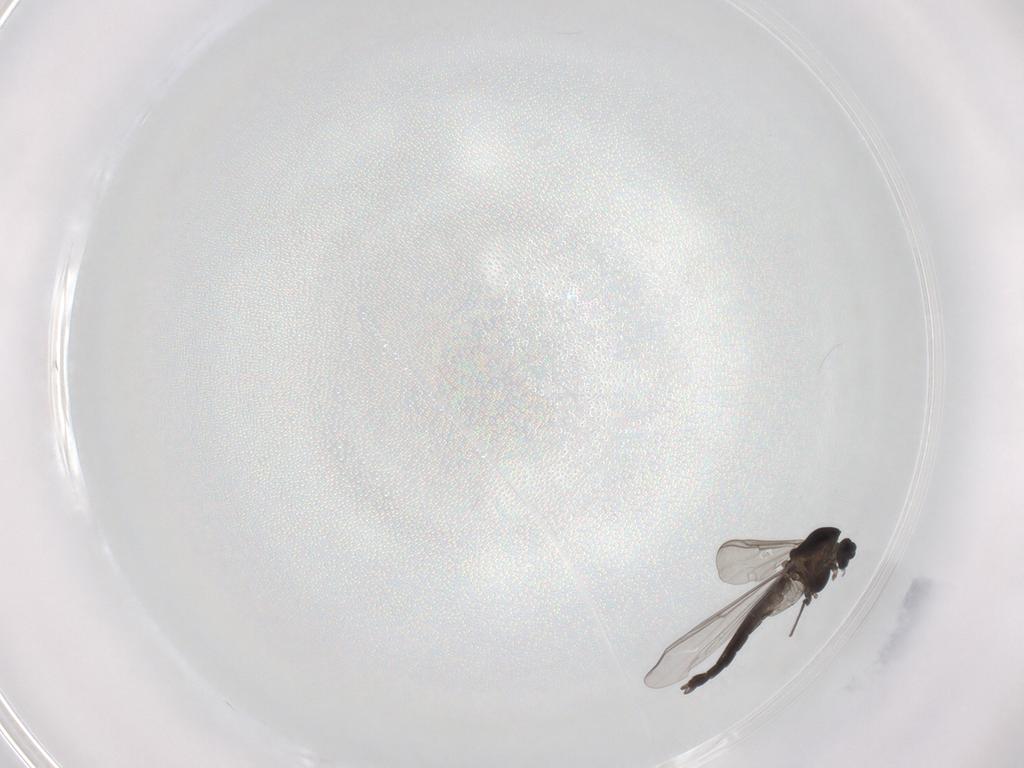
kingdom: Animalia
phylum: Arthropoda
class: Insecta
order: Diptera
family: Chironomidae
